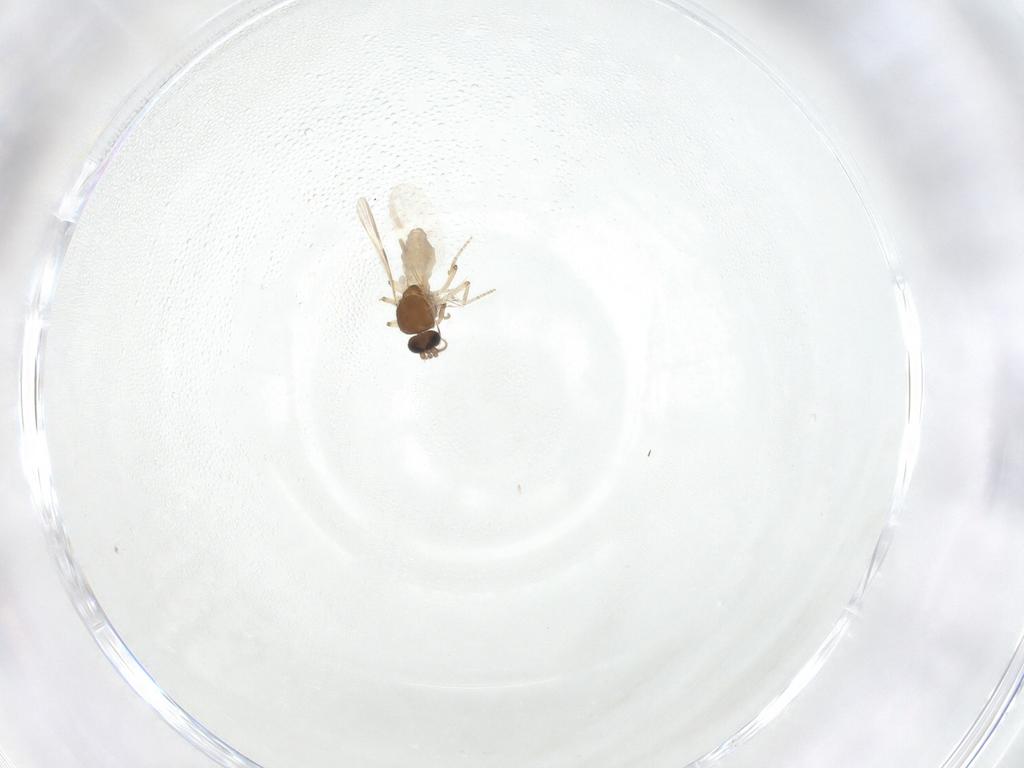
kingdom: Animalia
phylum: Arthropoda
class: Insecta
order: Diptera
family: Ceratopogonidae
